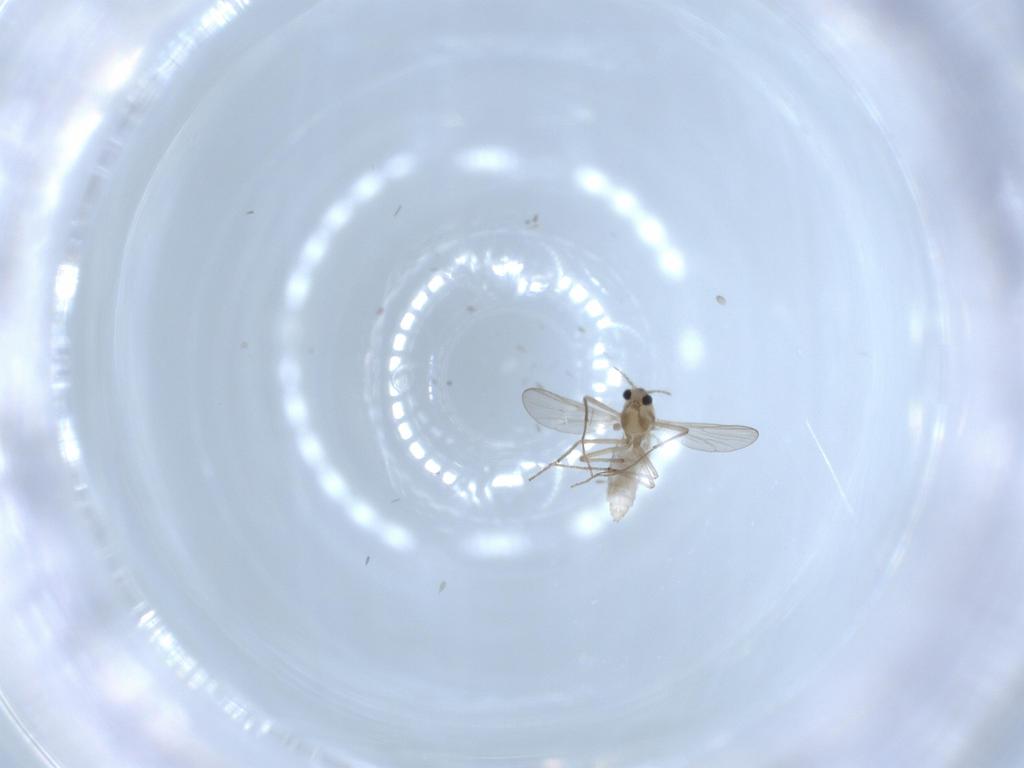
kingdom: Animalia
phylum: Arthropoda
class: Insecta
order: Diptera
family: Chironomidae
